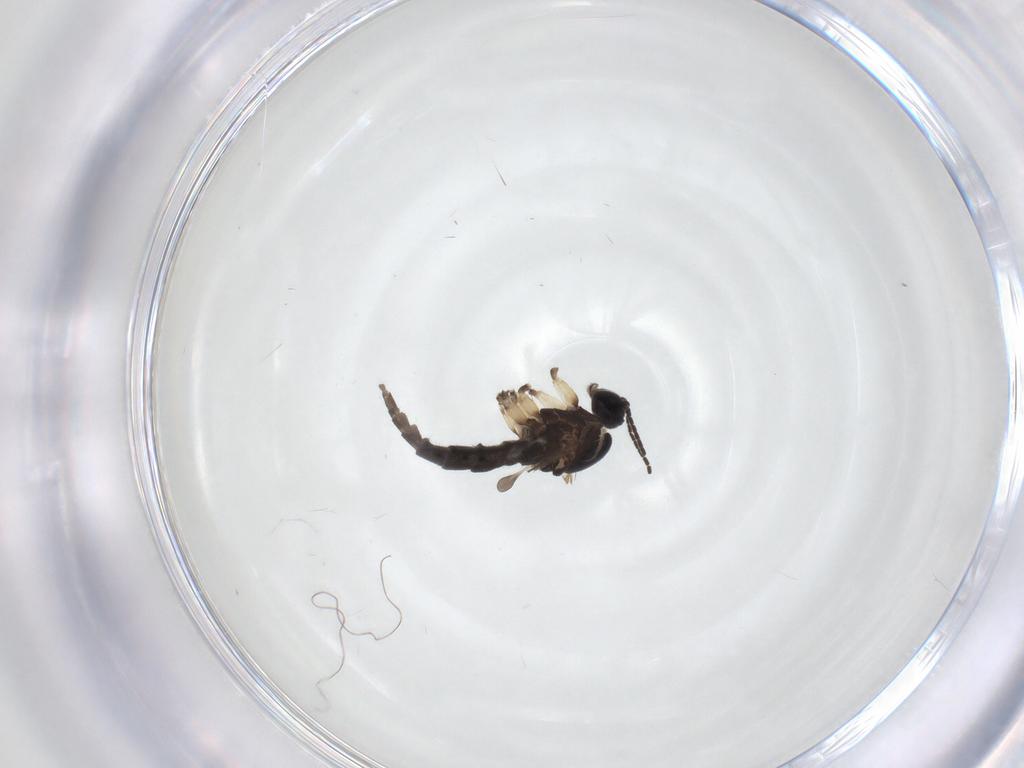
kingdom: Animalia
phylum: Arthropoda
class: Insecta
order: Diptera
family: Sciaridae
